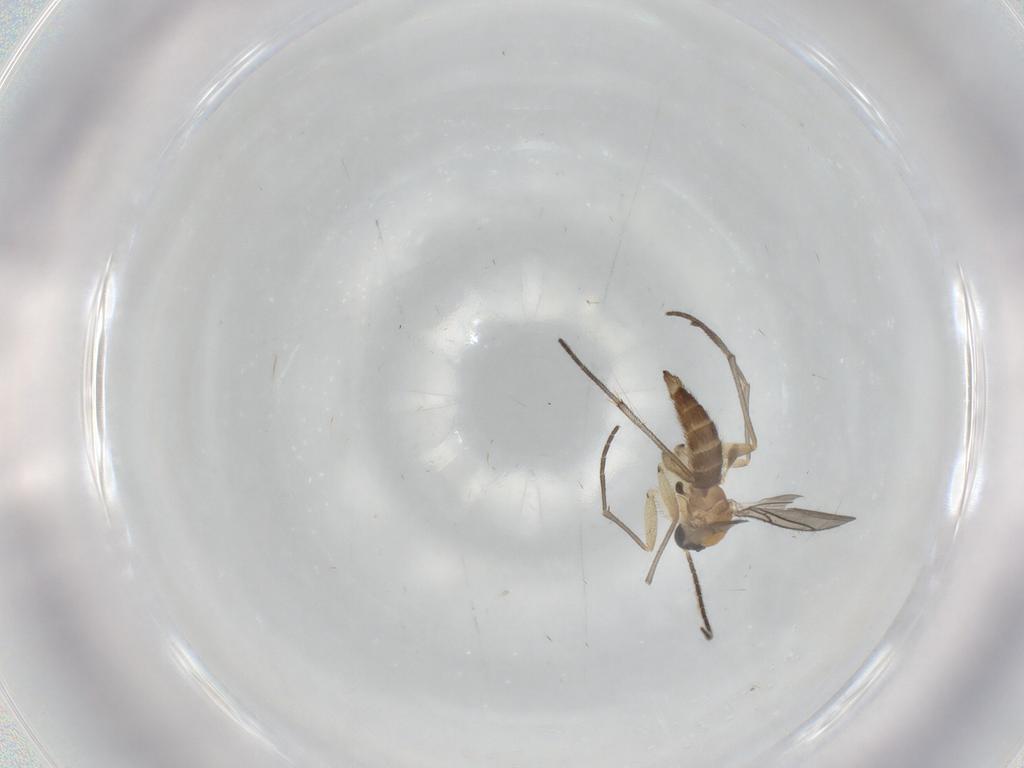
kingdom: Animalia
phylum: Arthropoda
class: Insecta
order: Diptera
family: Sciaridae
